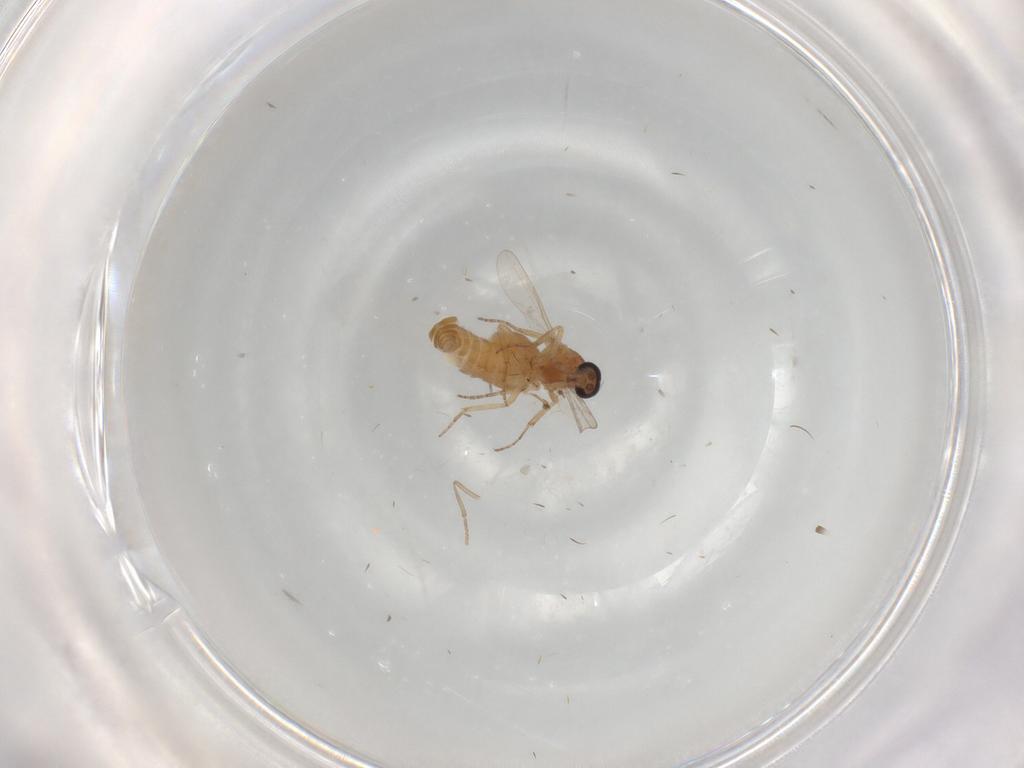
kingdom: Animalia
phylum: Arthropoda
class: Insecta
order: Diptera
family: Ceratopogonidae
